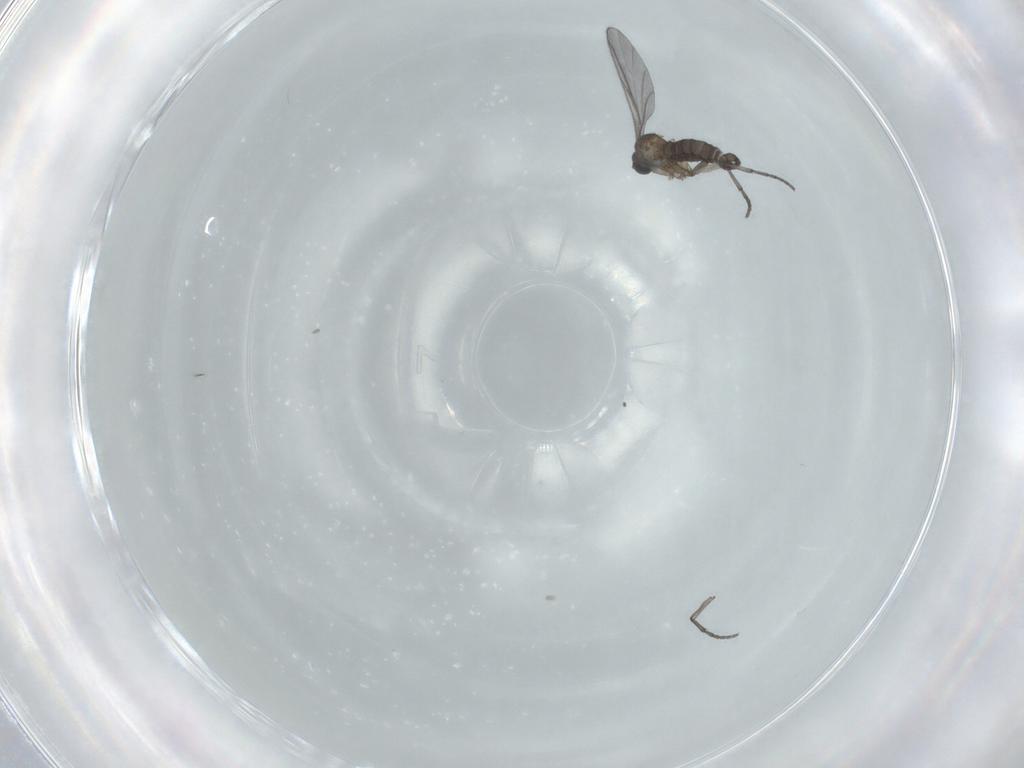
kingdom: Animalia
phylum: Arthropoda
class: Insecta
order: Diptera
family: Sciaridae
